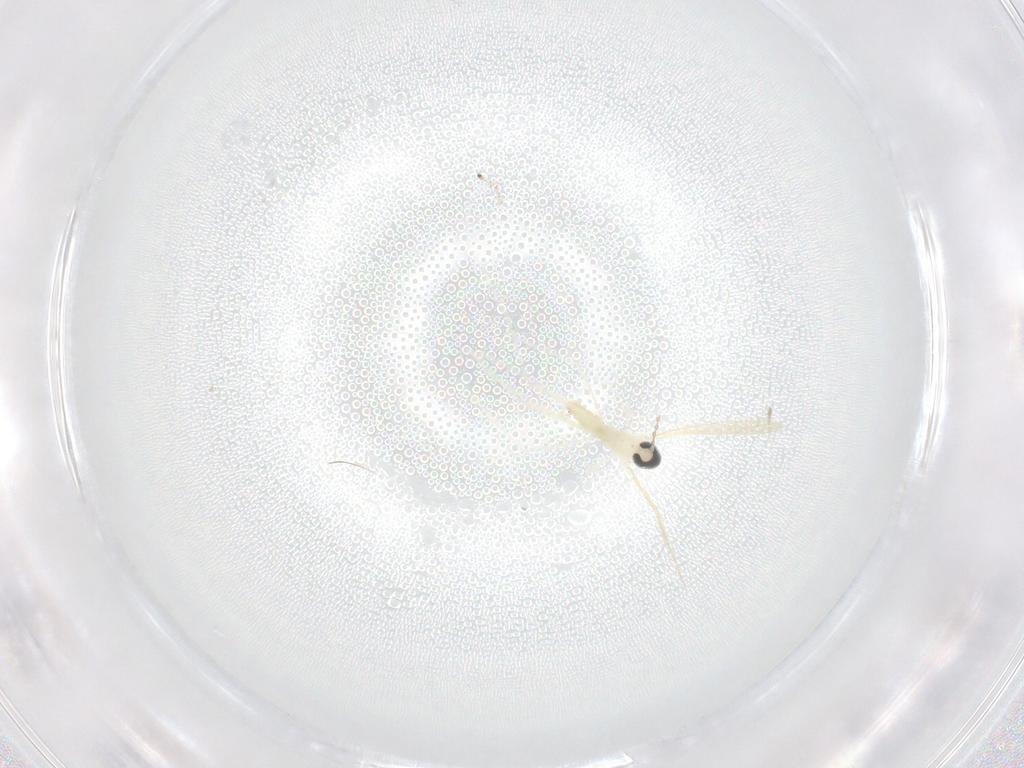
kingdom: Animalia
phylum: Arthropoda
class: Insecta
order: Diptera
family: Cecidomyiidae
